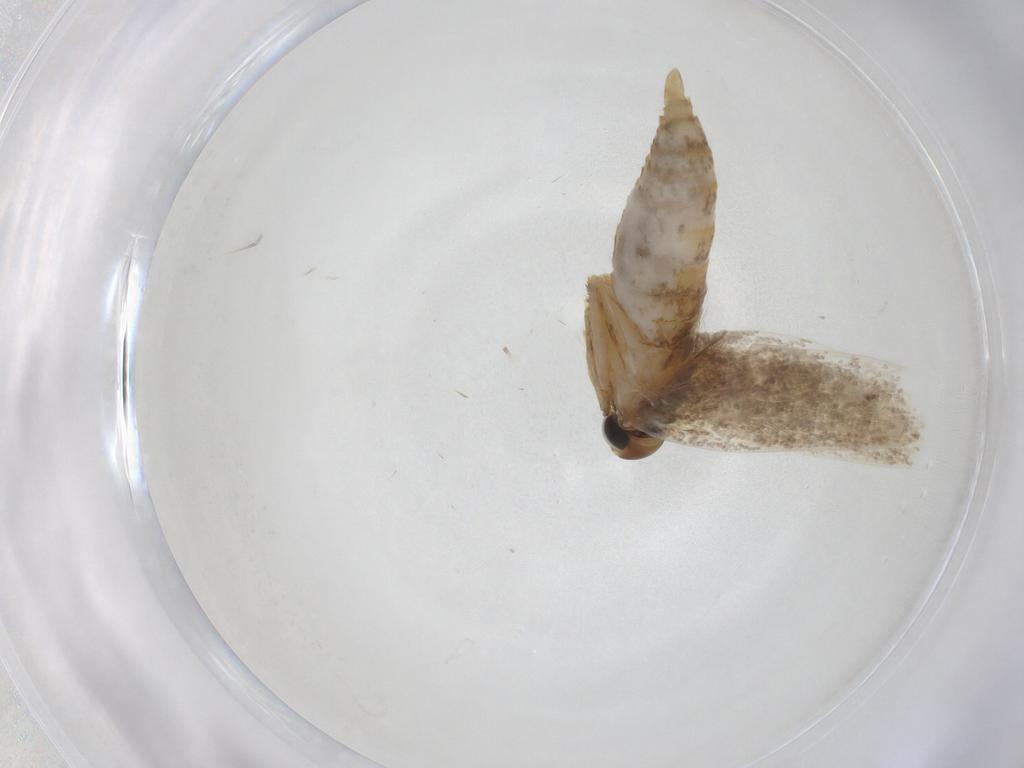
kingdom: Animalia
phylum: Arthropoda
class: Insecta
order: Lepidoptera
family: Oecophoridae
